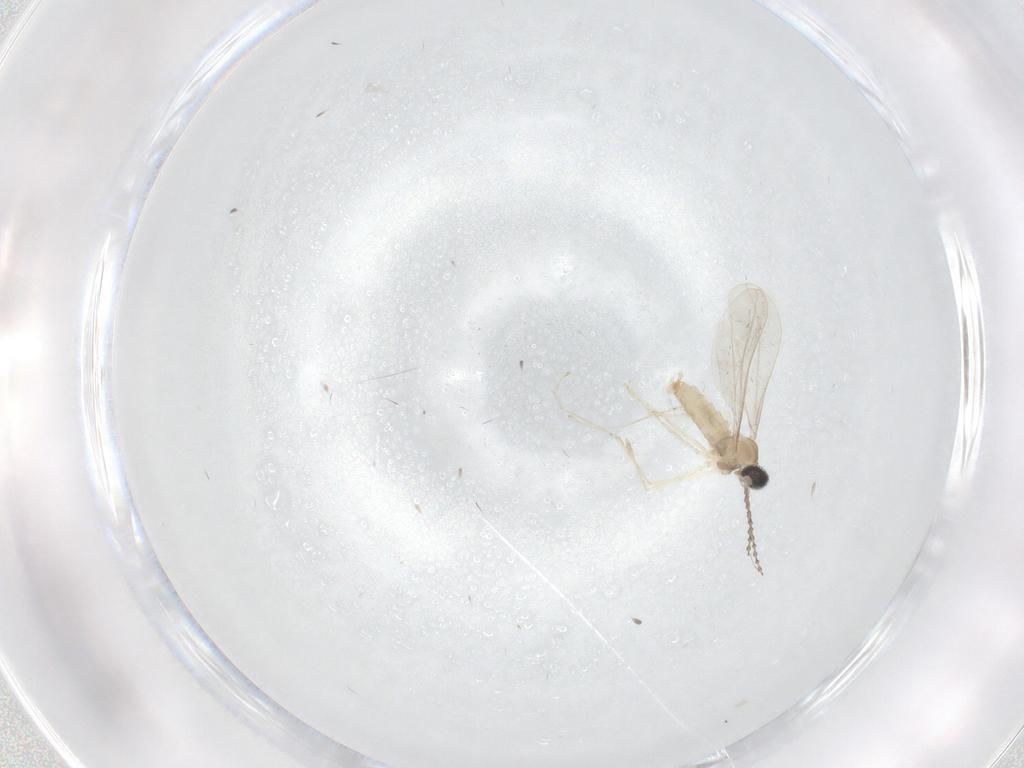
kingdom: Animalia
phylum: Arthropoda
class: Insecta
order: Diptera
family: Cecidomyiidae
